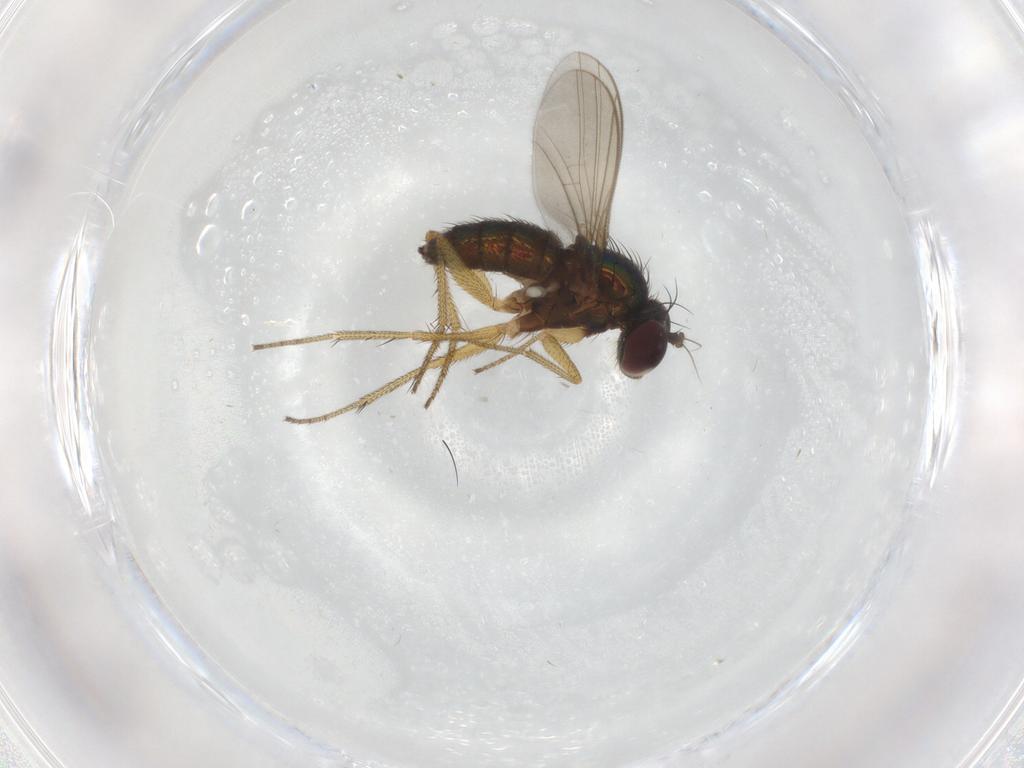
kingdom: Animalia
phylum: Arthropoda
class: Insecta
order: Diptera
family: Dolichopodidae
